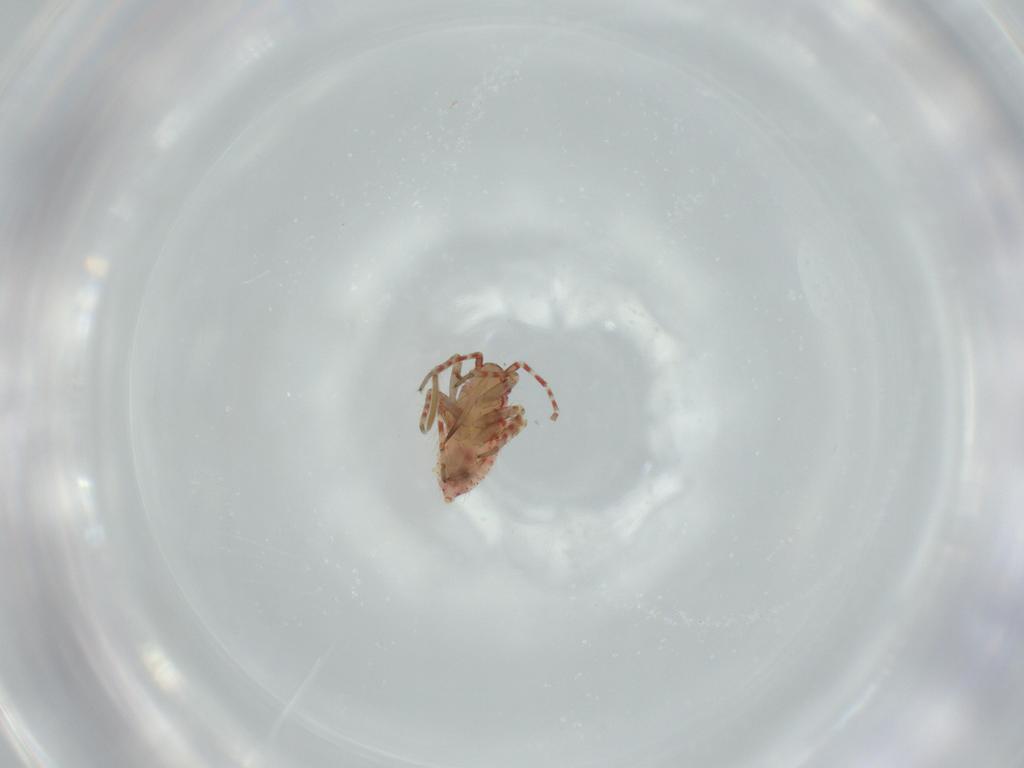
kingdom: Animalia
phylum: Arthropoda
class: Insecta
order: Hemiptera
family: Miridae
